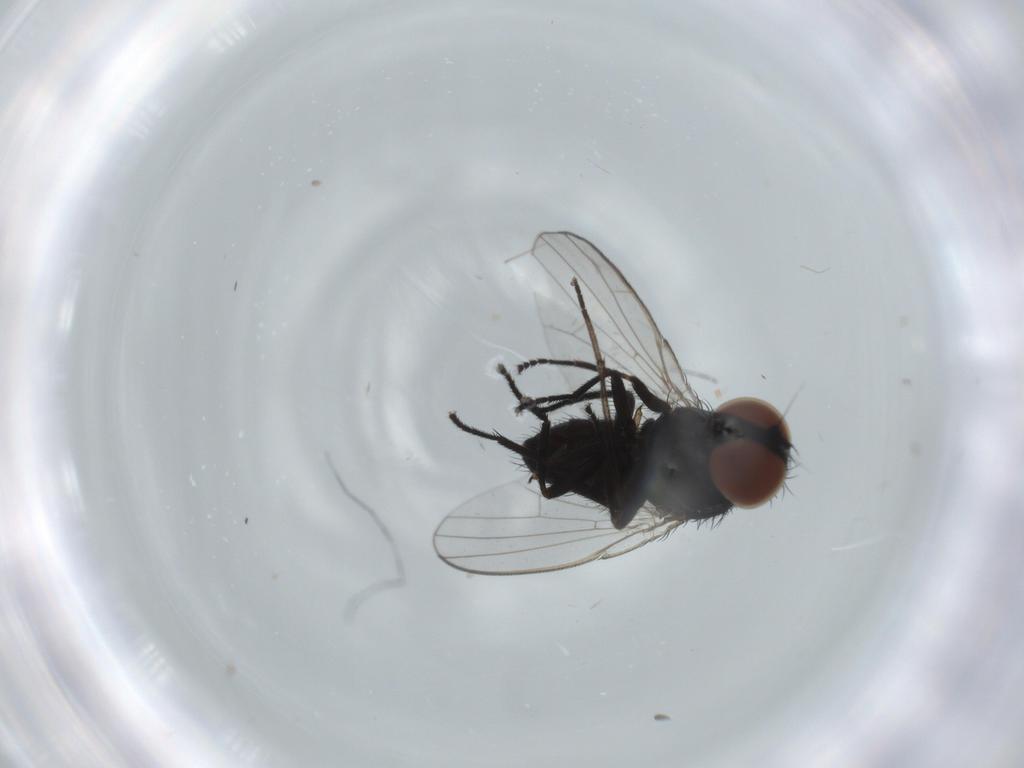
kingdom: Animalia
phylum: Arthropoda
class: Insecta
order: Diptera
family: Milichiidae
